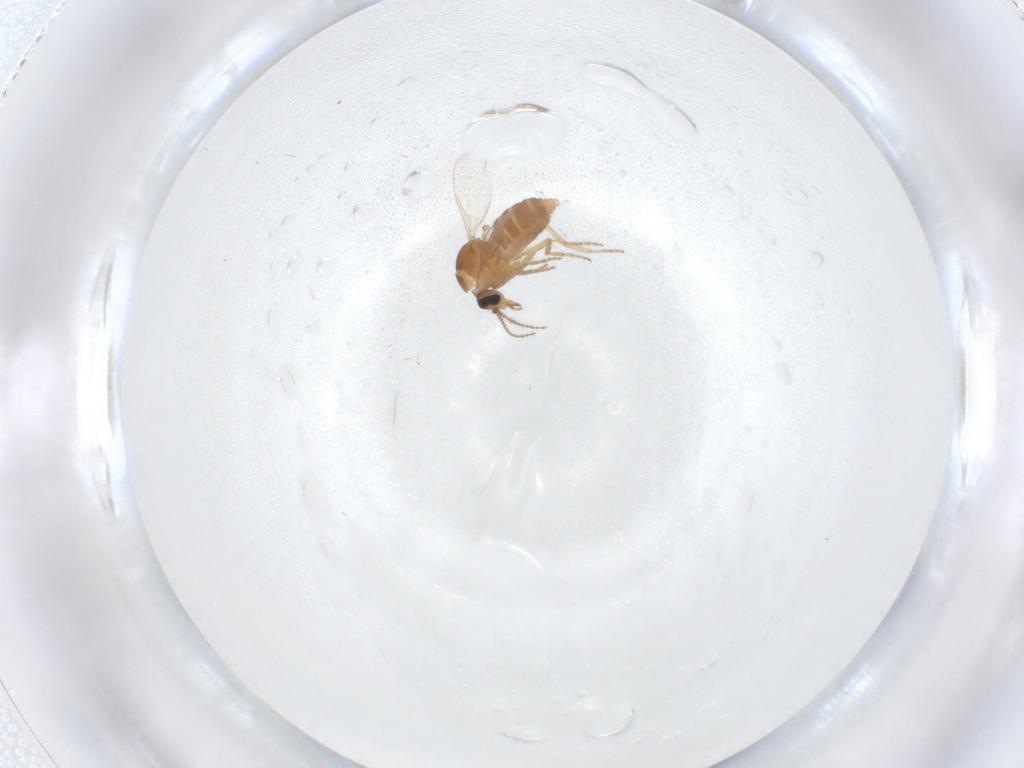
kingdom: Animalia
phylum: Arthropoda
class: Insecta
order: Diptera
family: Ceratopogonidae
